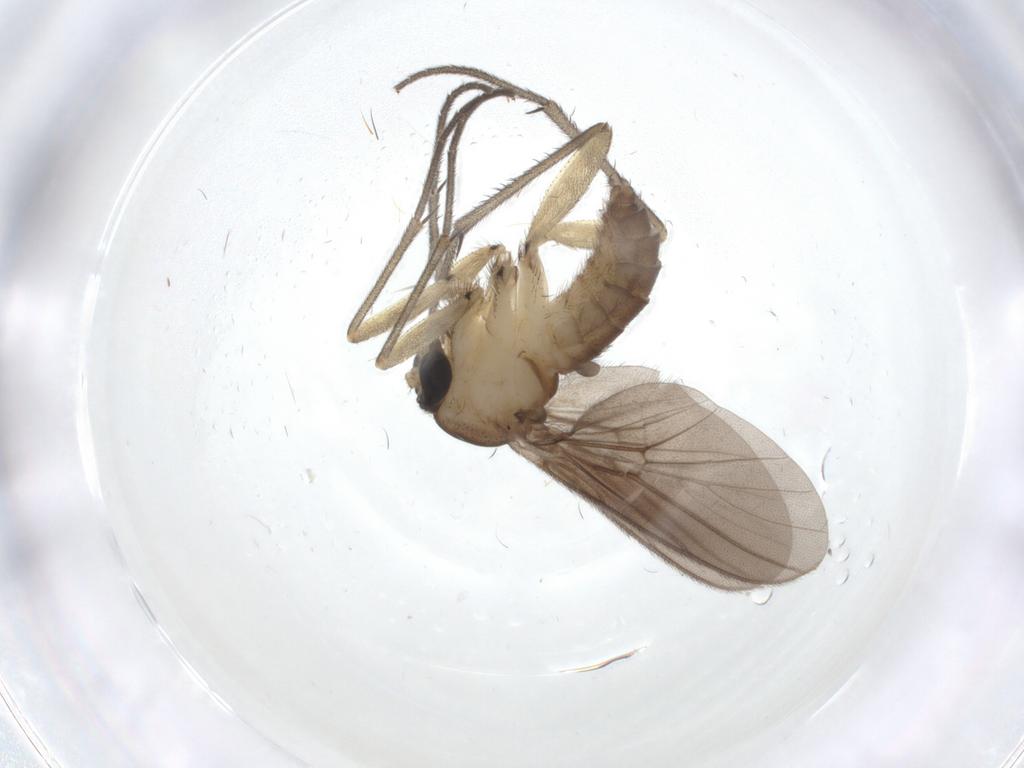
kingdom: Animalia
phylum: Arthropoda
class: Insecta
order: Diptera
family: Diadocidiidae
